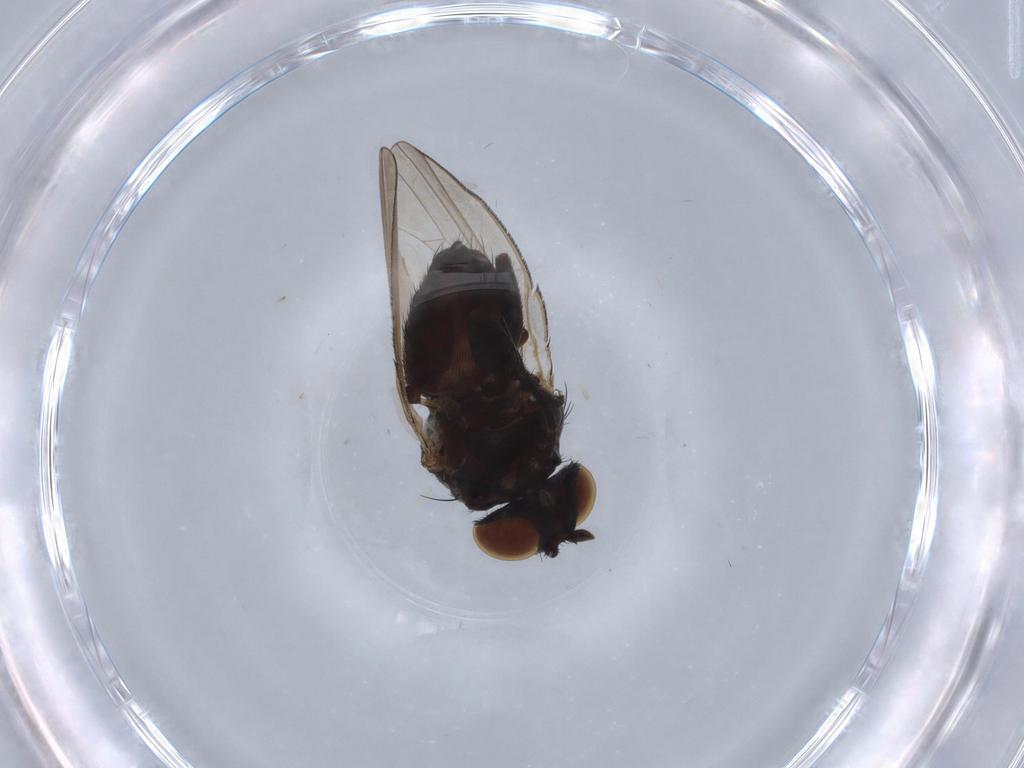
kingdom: Animalia
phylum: Arthropoda
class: Insecta
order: Diptera
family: Milichiidae
